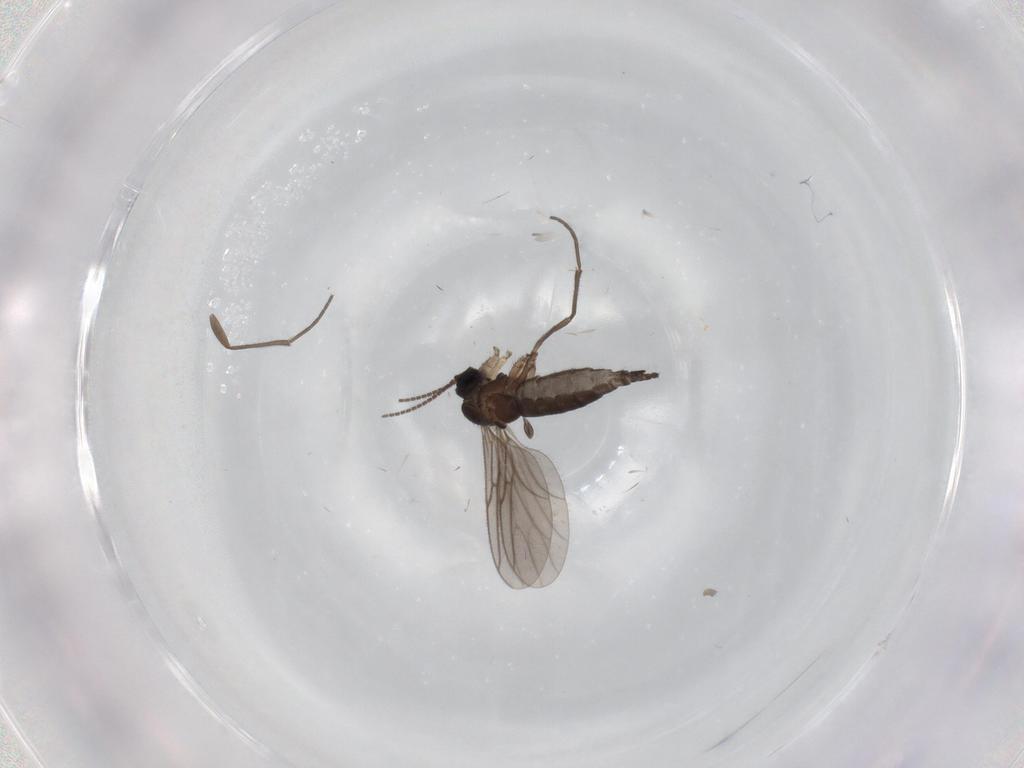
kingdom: Animalia
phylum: Arthropoda
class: Insecta
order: Diptera
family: Sciaridae
